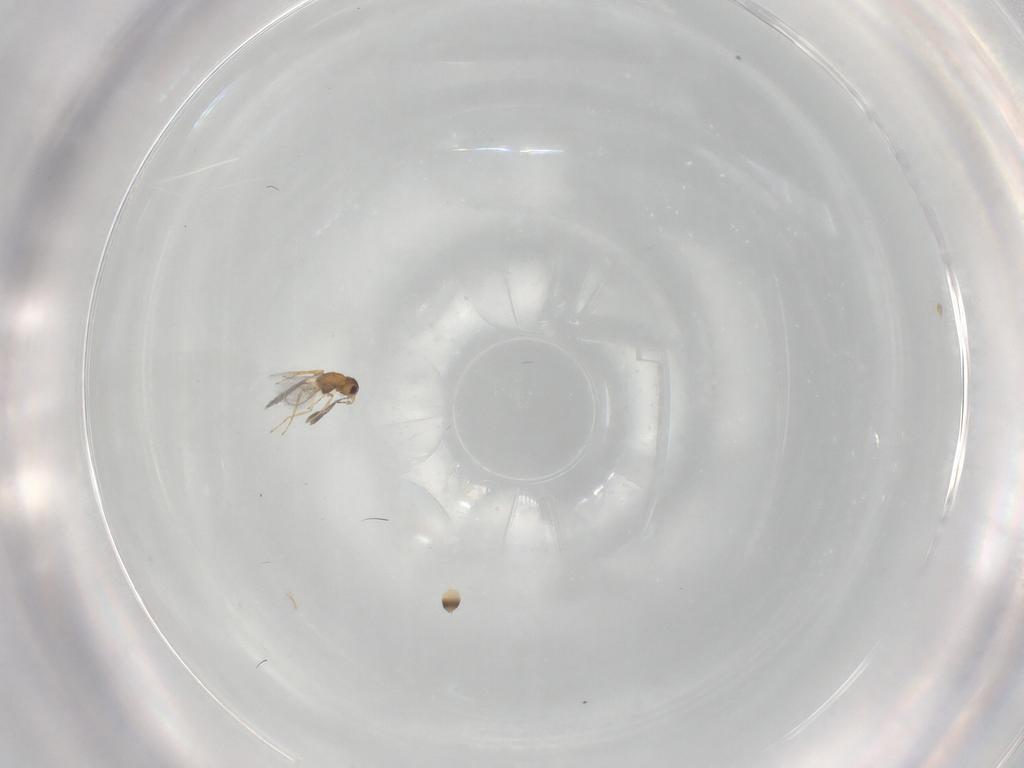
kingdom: Animalia
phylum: Arthropoda
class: Insecta
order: Hymenoptera
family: Mymaridae
